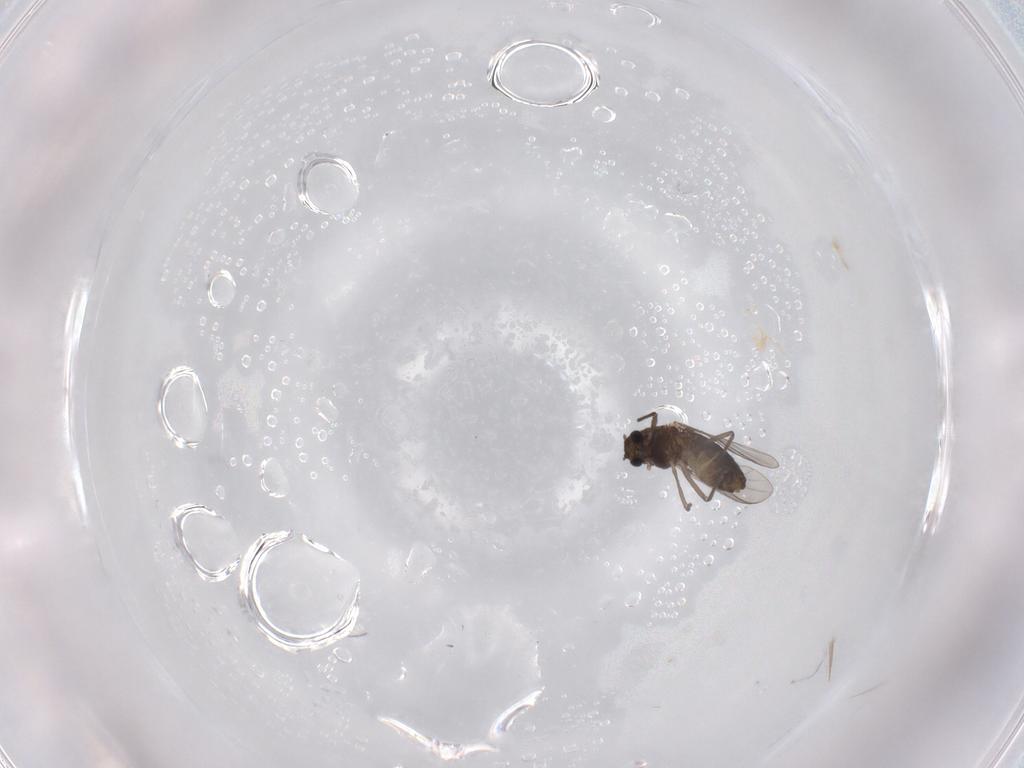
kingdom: Animalia
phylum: Arthropoda
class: Insecta
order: Diptera
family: Chironomidae
